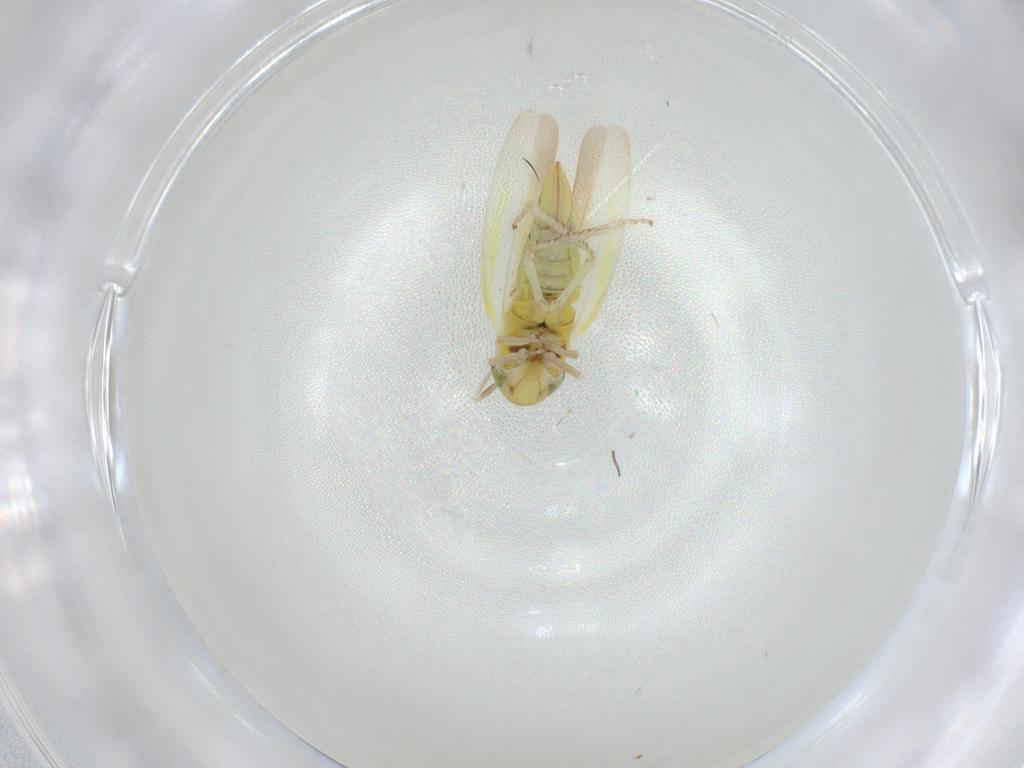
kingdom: Animalia
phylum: Arthropoda
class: Insecta
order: Hemiptera
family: Cicadellidae
